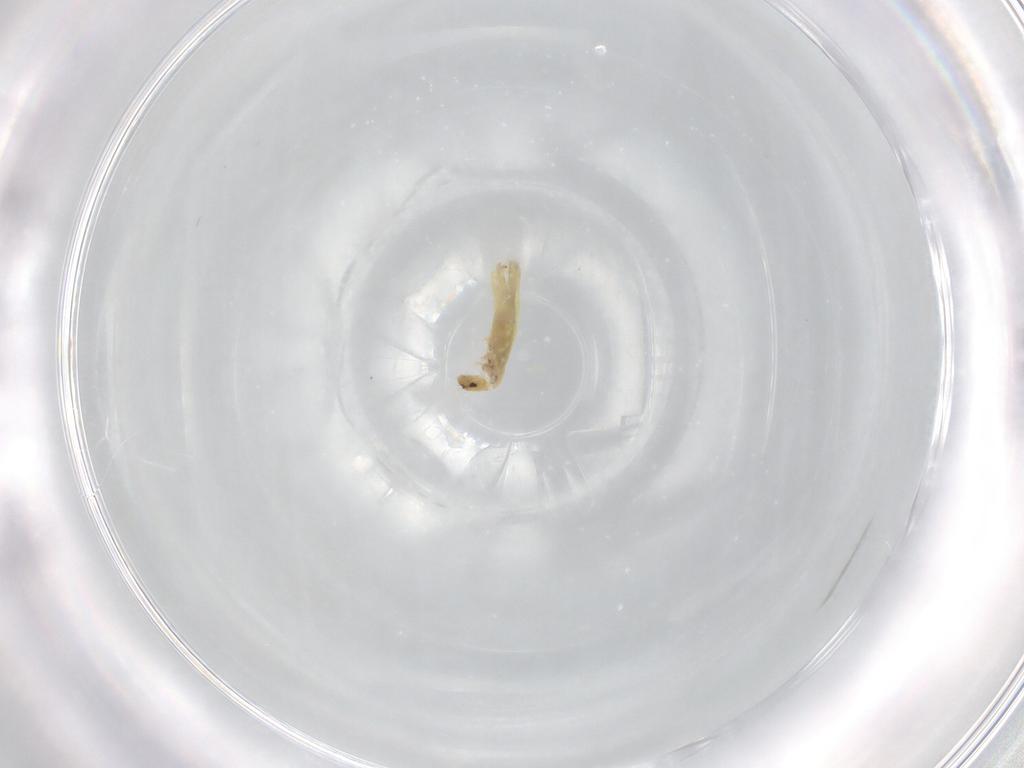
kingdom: Animalia
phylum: Arthropoda
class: Collembola
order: Entomobryomorpha
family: Entomobryidae
